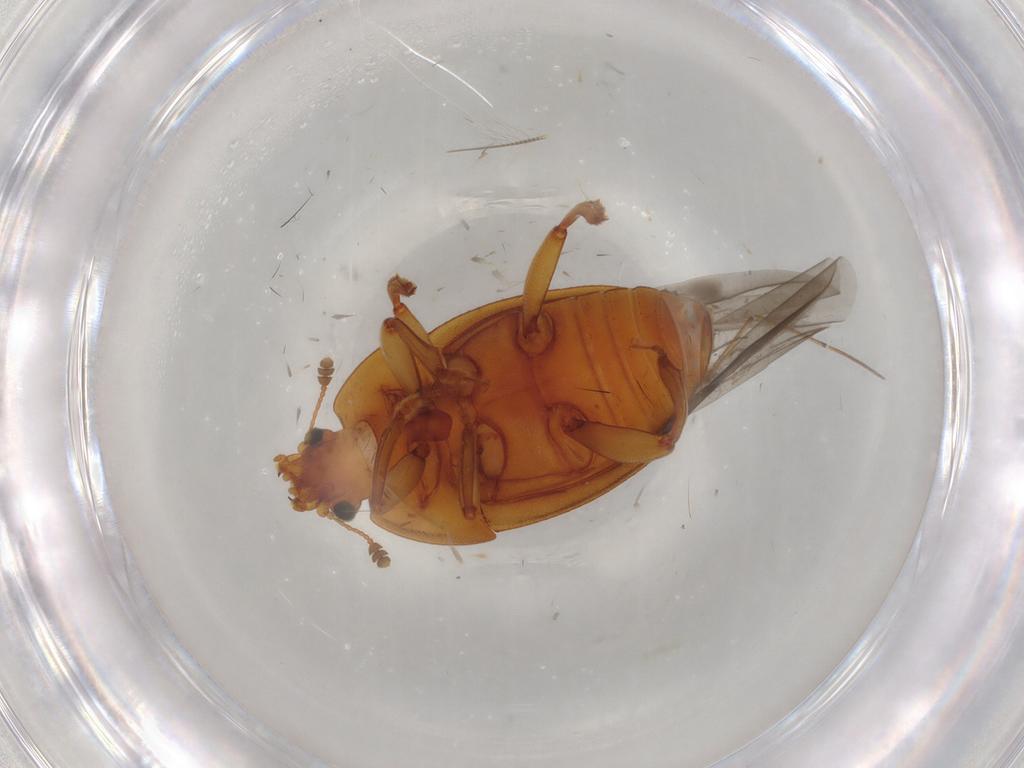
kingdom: Animalia
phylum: Arthropoda
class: Insecta
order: Coleoptera
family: Nitidulidae
